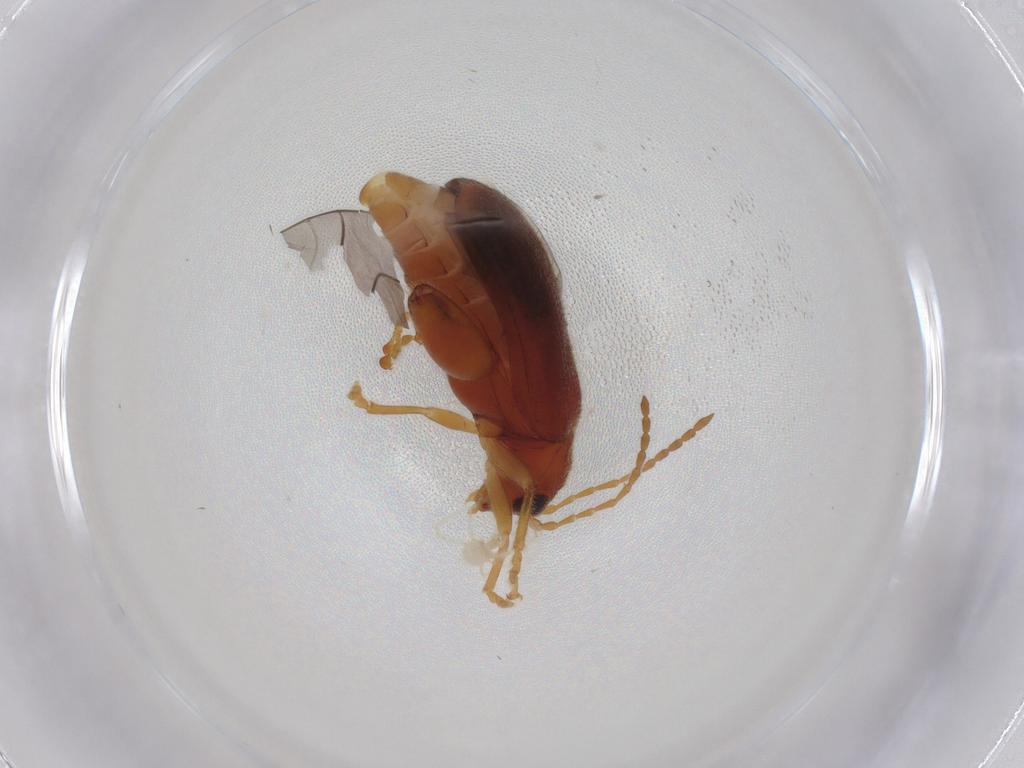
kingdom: Animalia
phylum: Arthropoda
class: Insecta
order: Coleoptera
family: Chrysomelidae
